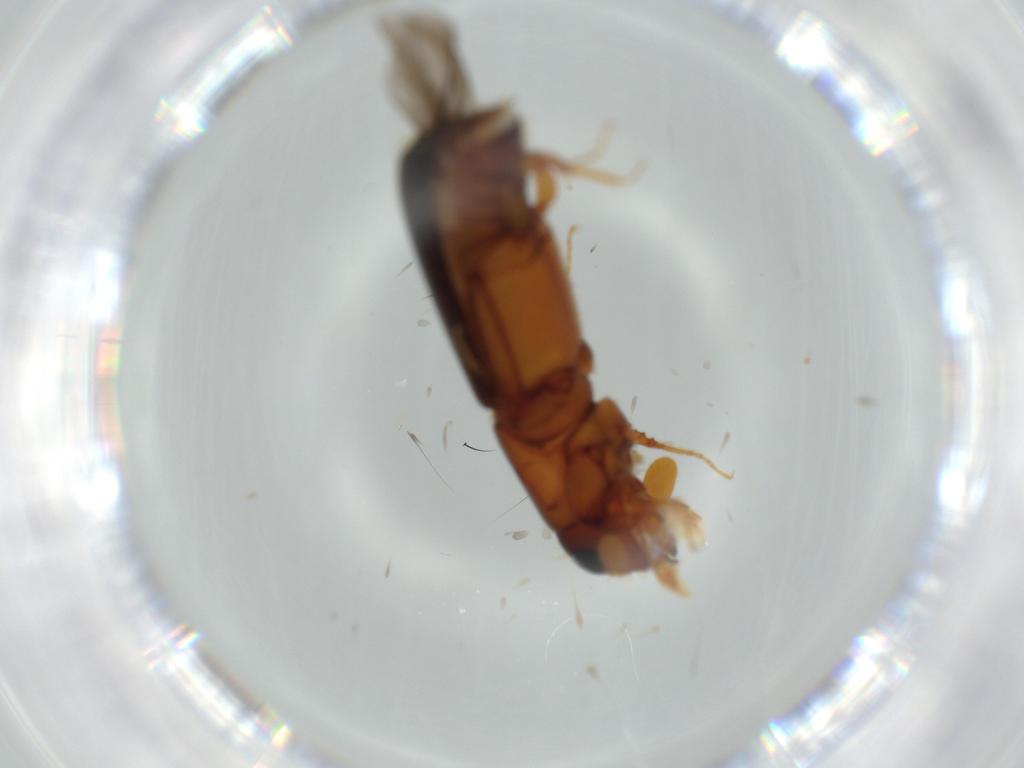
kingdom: Animalia
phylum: Arthropoda
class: Insecta
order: Coleoptera
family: Curculionidae
